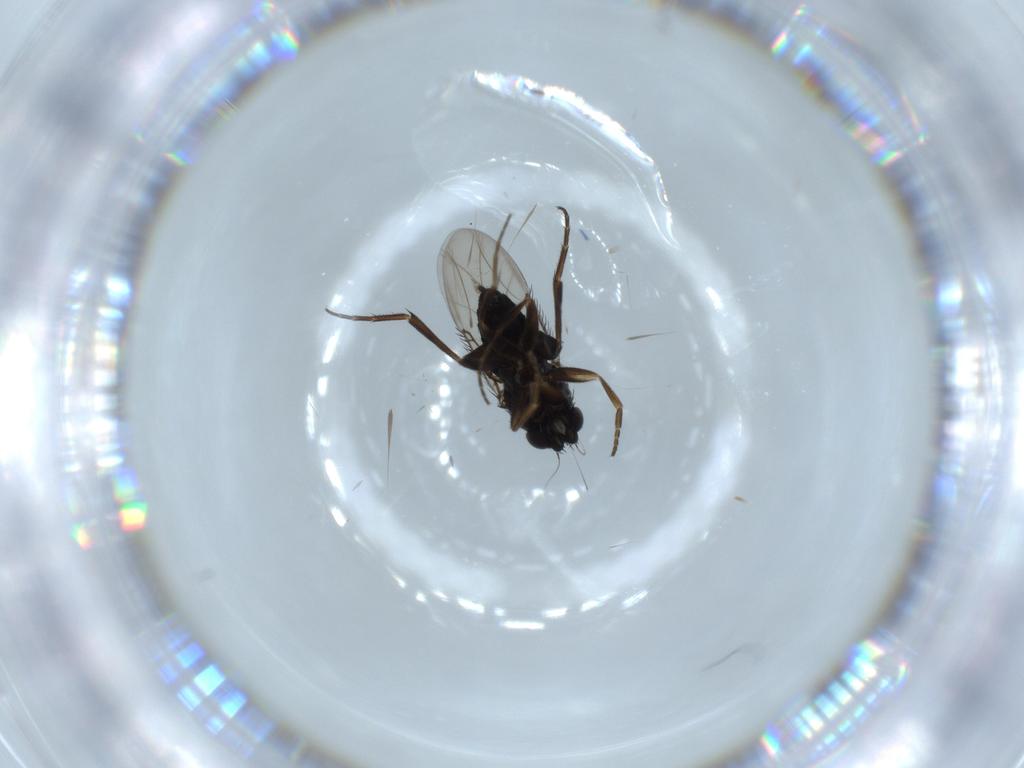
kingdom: Animalia
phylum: Arthropoda
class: Insecta
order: Diptera
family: Phoridae
